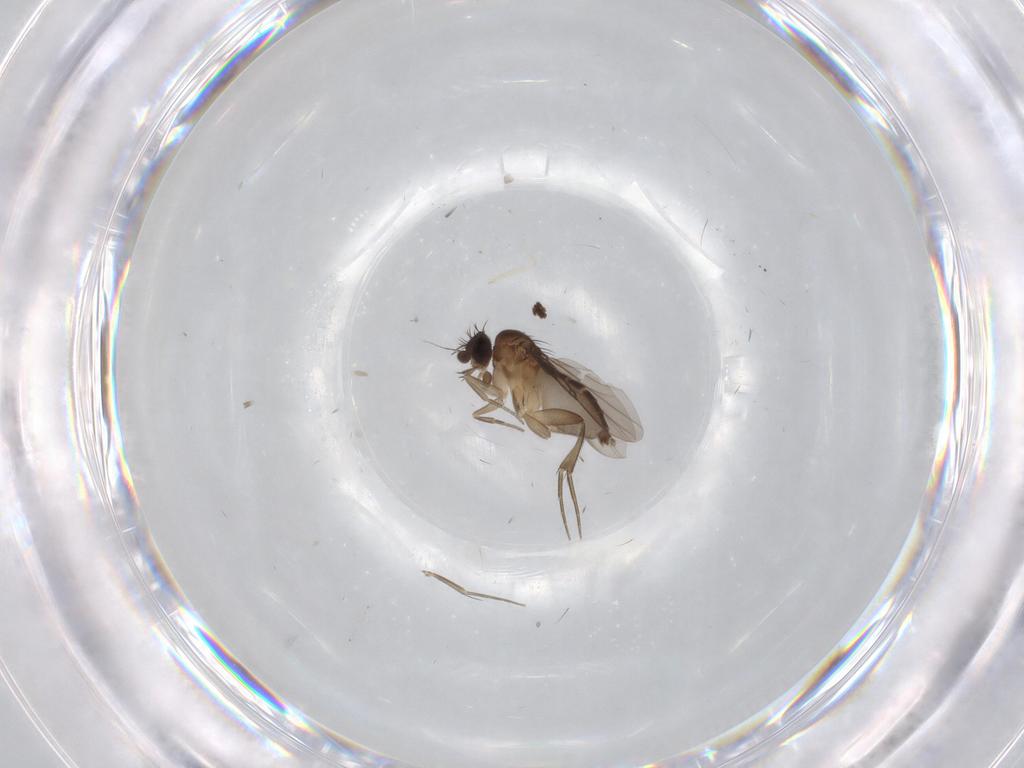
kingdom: Animalia
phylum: Arthropoda
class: Insecta
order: Diptera
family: Phoridae
